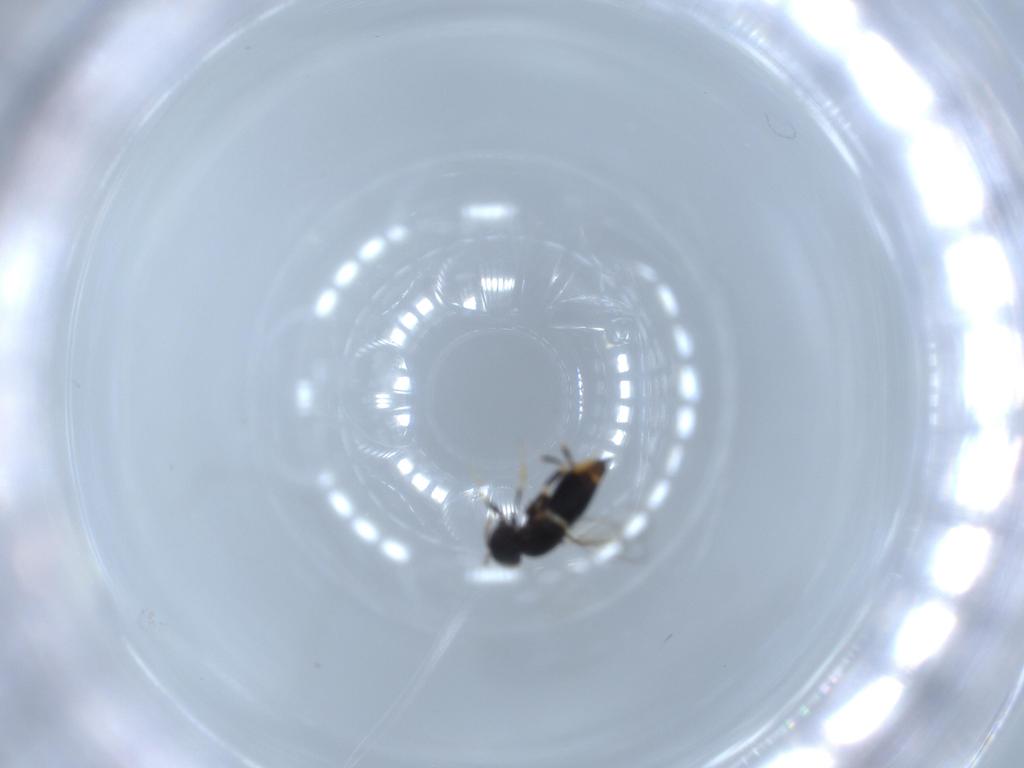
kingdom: Animalia
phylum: Arthropoda
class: Insecta
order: Hymenoptera
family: Signiphoridae
